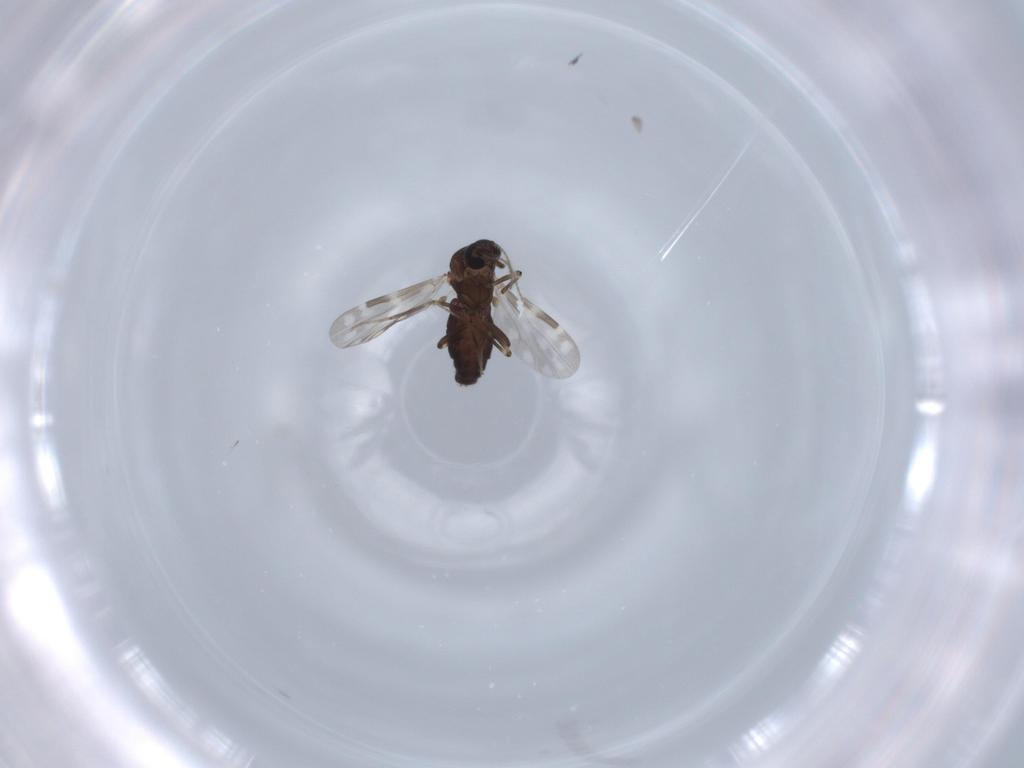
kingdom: Animalia
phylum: Arthropoda
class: Insecta
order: Diptera
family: Ceratopogonidae
